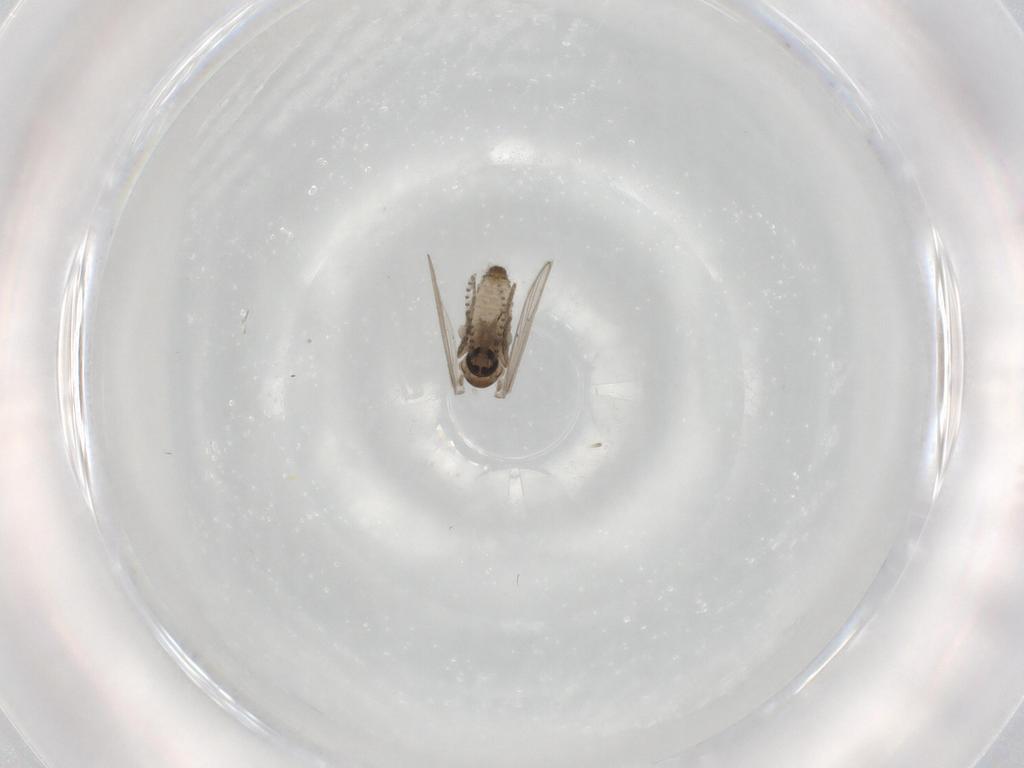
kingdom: Animalia
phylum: Arthropoda
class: Insecta
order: Diptera
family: Psychodidae
